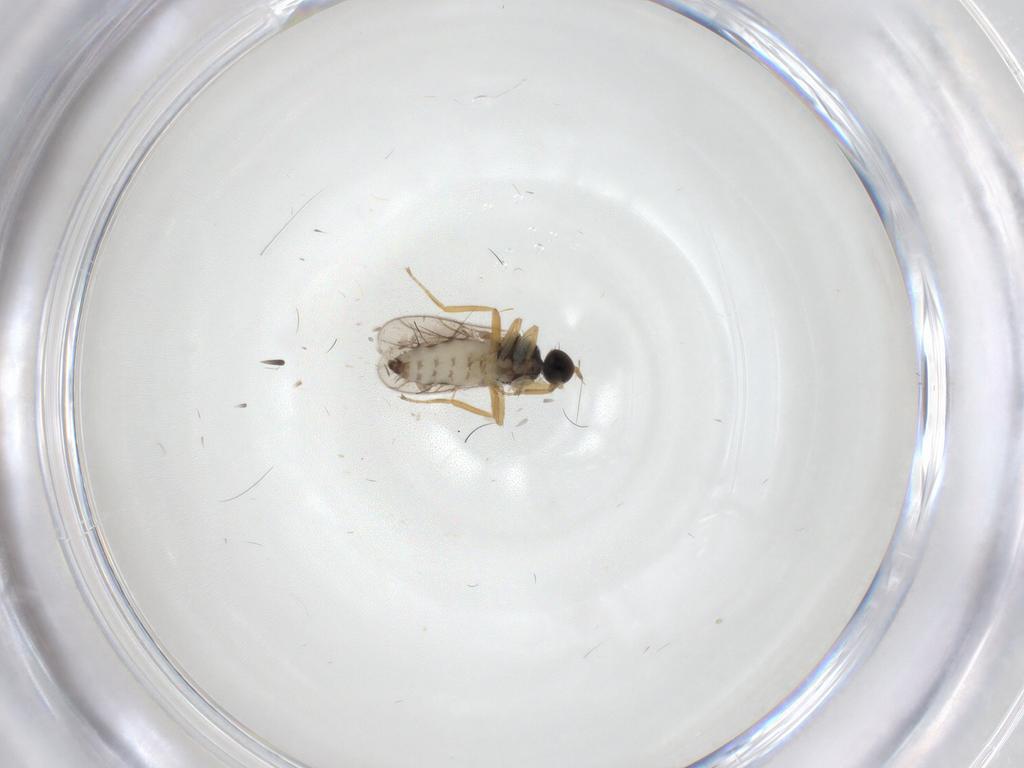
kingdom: Animalia
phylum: Arthropoda
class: Insecta
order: Diptera
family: Hybotidae
